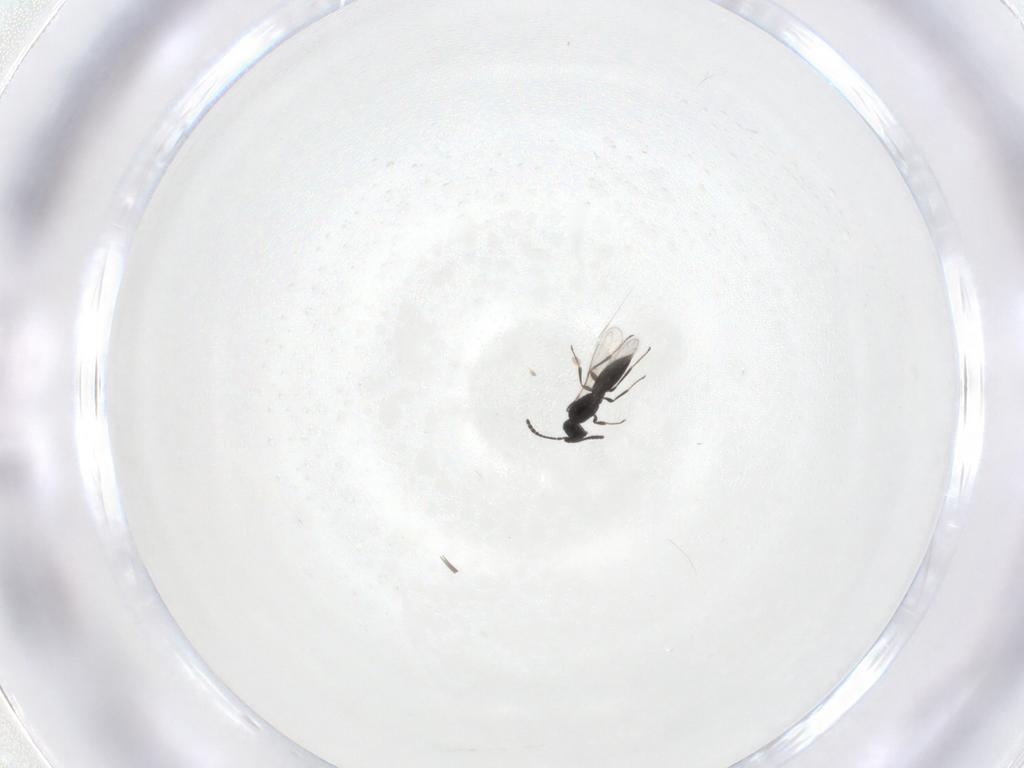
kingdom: Animalia
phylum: Arthropoda
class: Insecta
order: Hymenoptera
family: Scelionidae
